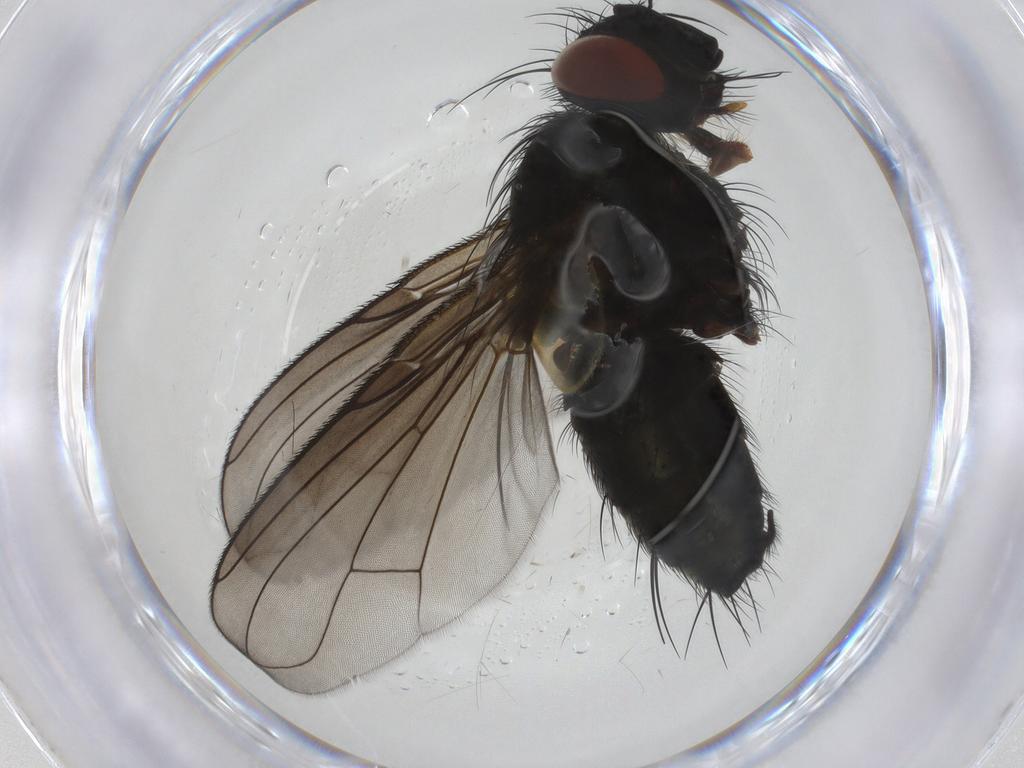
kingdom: Animalia
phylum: Arthropoda
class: Insecta
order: Diptera
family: Tachinidae
